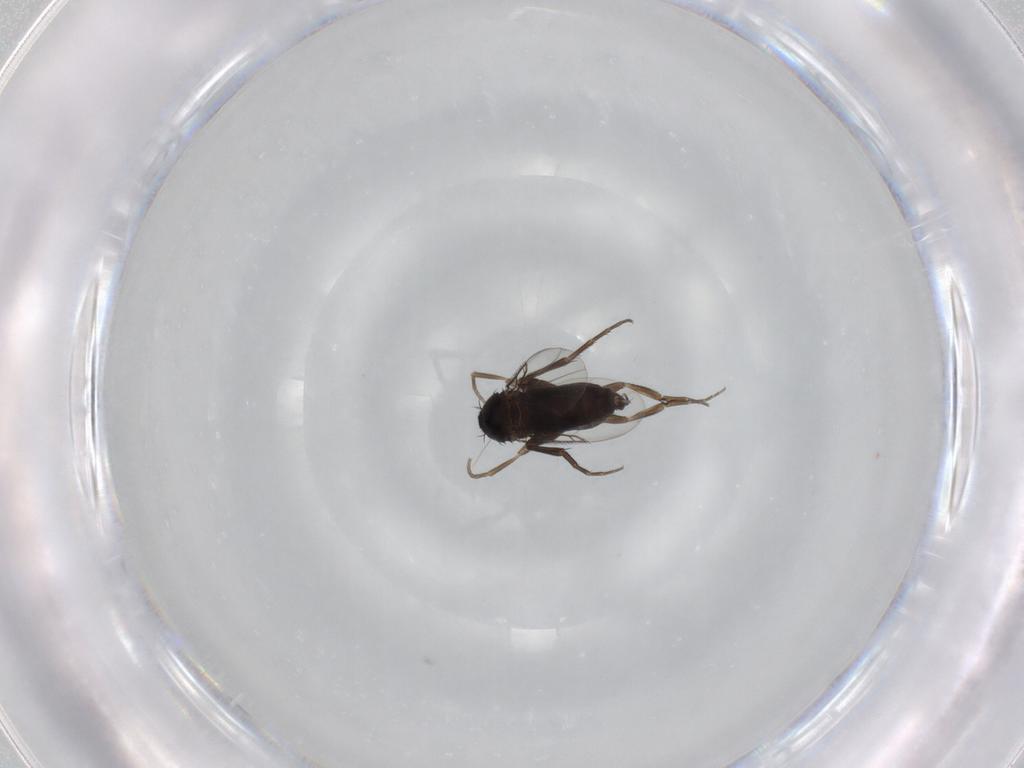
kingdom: Animalia
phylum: Arthropoda
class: Insecta
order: Diptera
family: Phoridae
